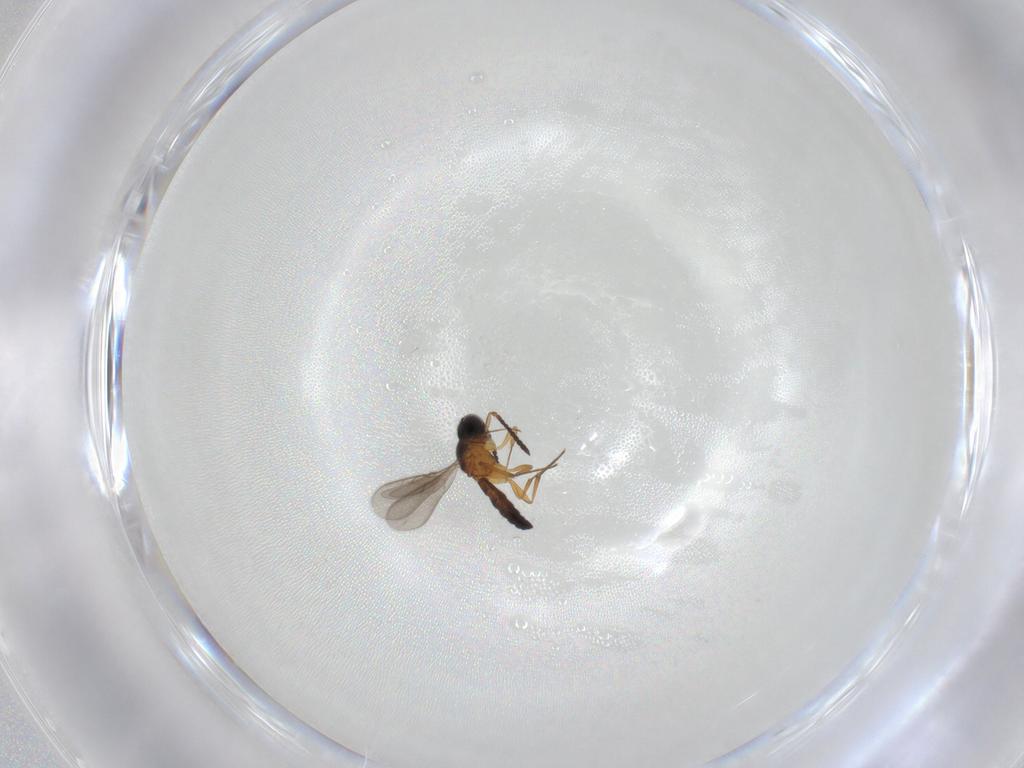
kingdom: Animalia
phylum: Arthropoda
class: Insecta
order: Hymenoptera
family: Scelionidae
